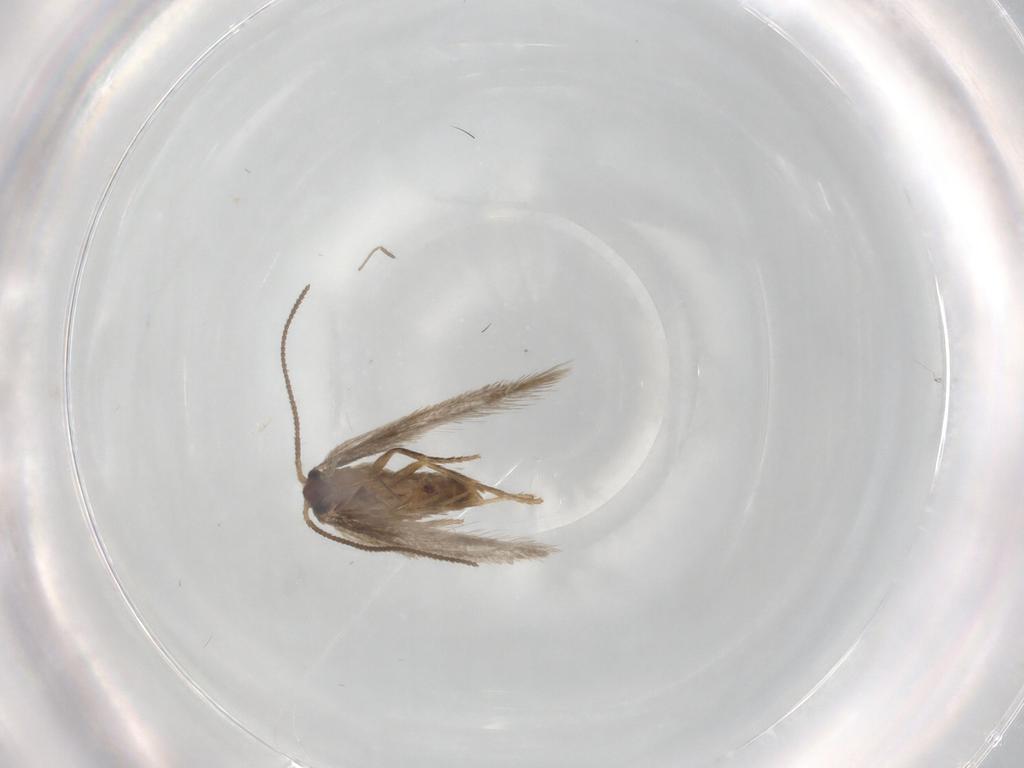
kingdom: Animalia
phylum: Arthropoda
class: Insecta
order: Lepidoptera
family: Nepticulidae
